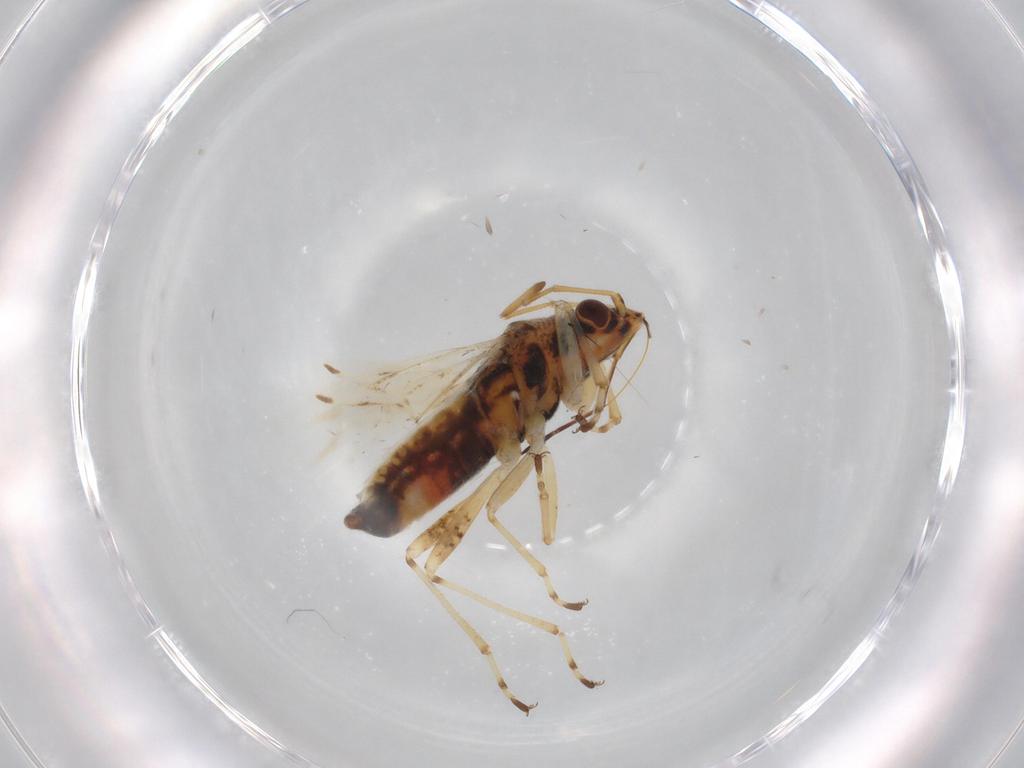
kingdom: Animalia
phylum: Arthropoda
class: Insecta
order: Hemiptera
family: Lygaeidae
